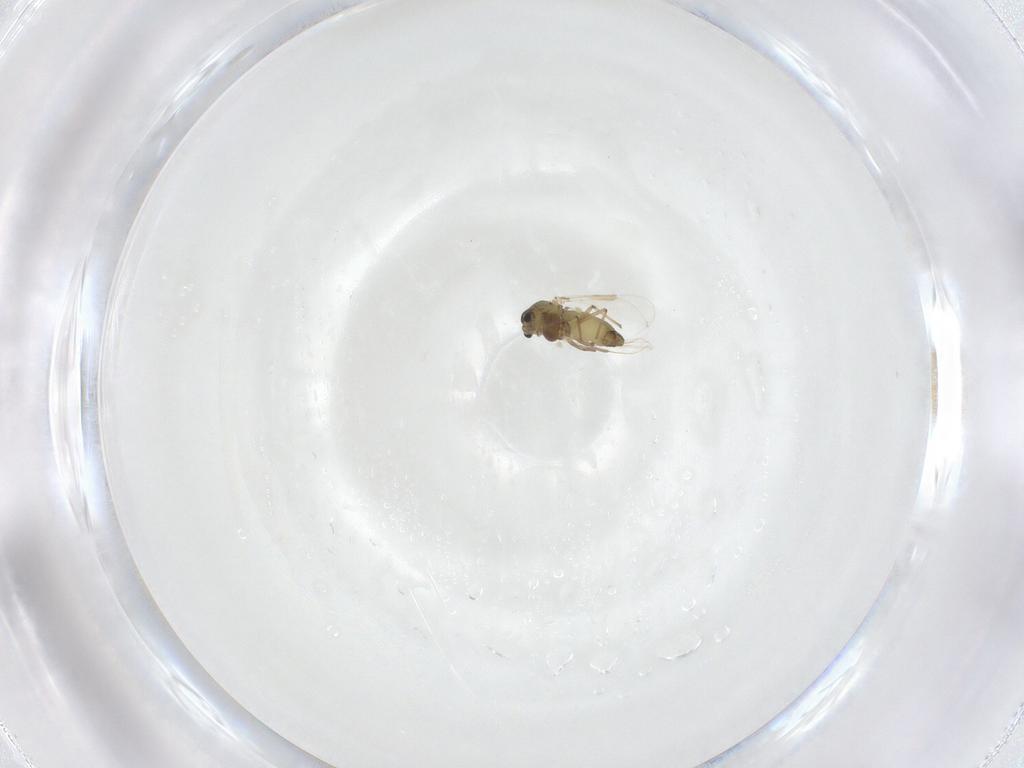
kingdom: Animalia
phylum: Arthropoda
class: Insecta
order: Diptera
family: Chironomidae
